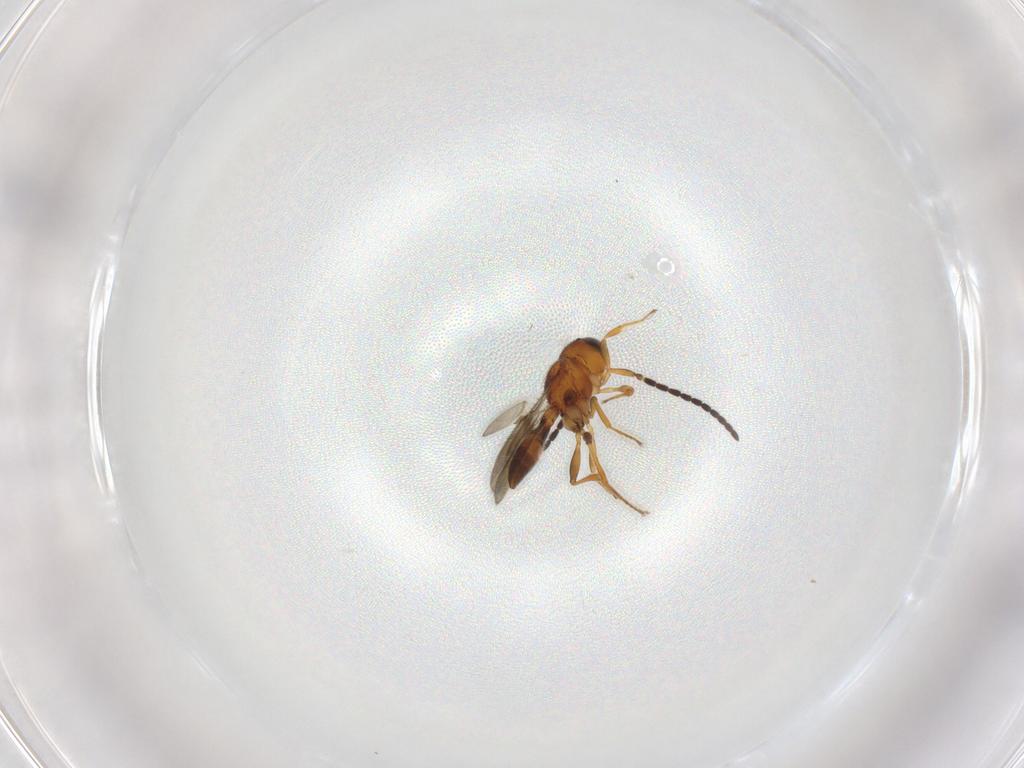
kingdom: Animalia
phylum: Arthropoda
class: Insecta
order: Hymenoptera
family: Scelionidae
